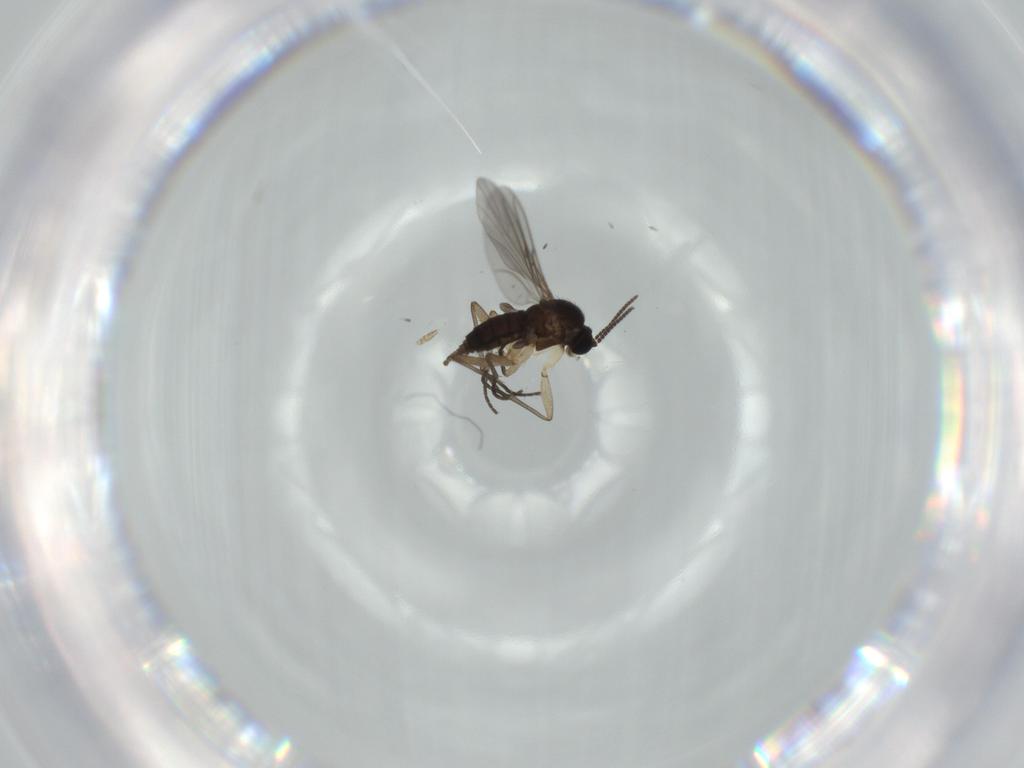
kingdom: Animalia
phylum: Arthropoda
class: Insecta
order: Diptera
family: Sciaridae
